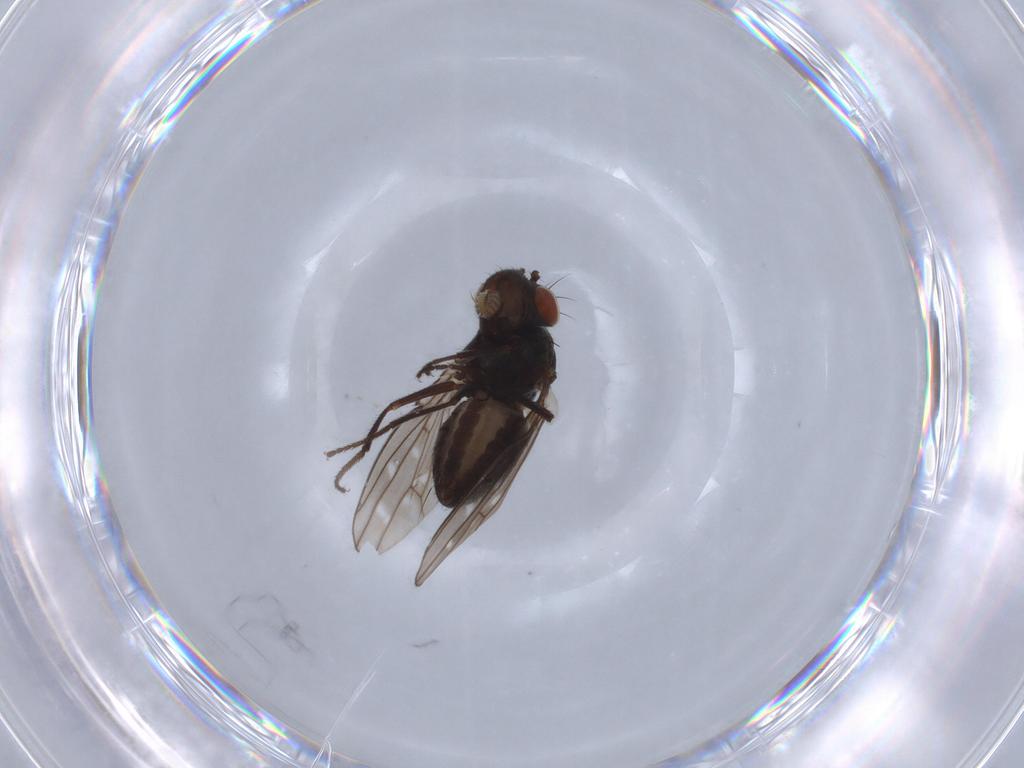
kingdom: Animalia
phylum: Arthropoda
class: Insecta
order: Diptera
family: Ephydridae
